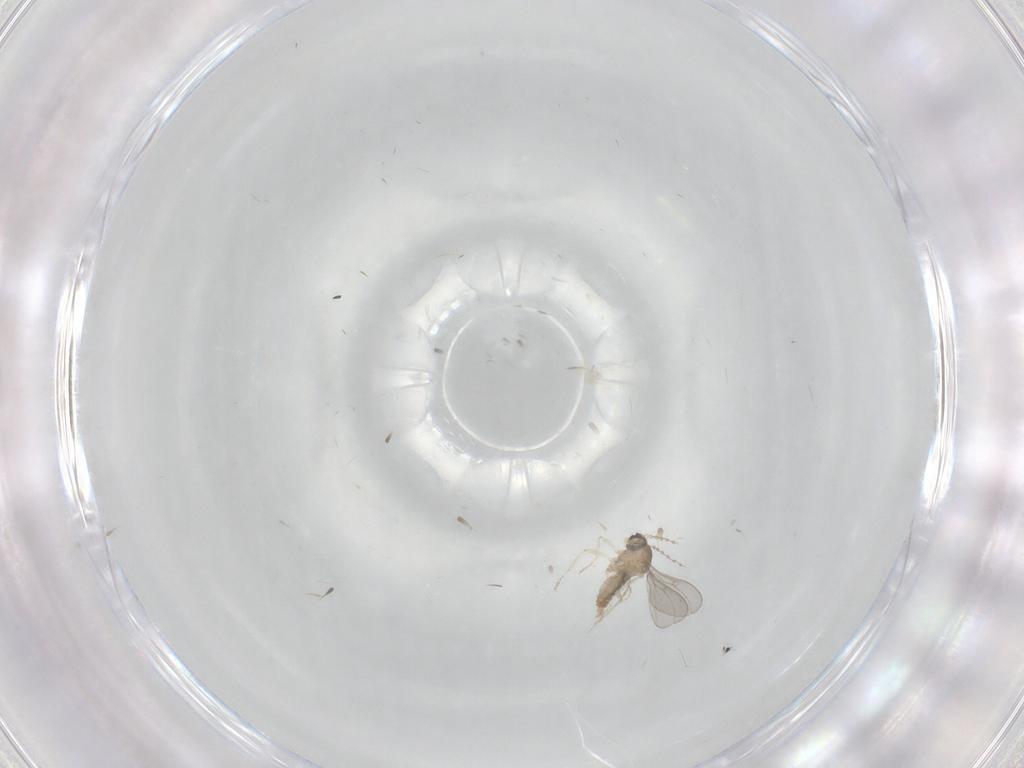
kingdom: Animalia
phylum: Arthropoda
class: Insecta
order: Diptera
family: Cecidomyiidae
